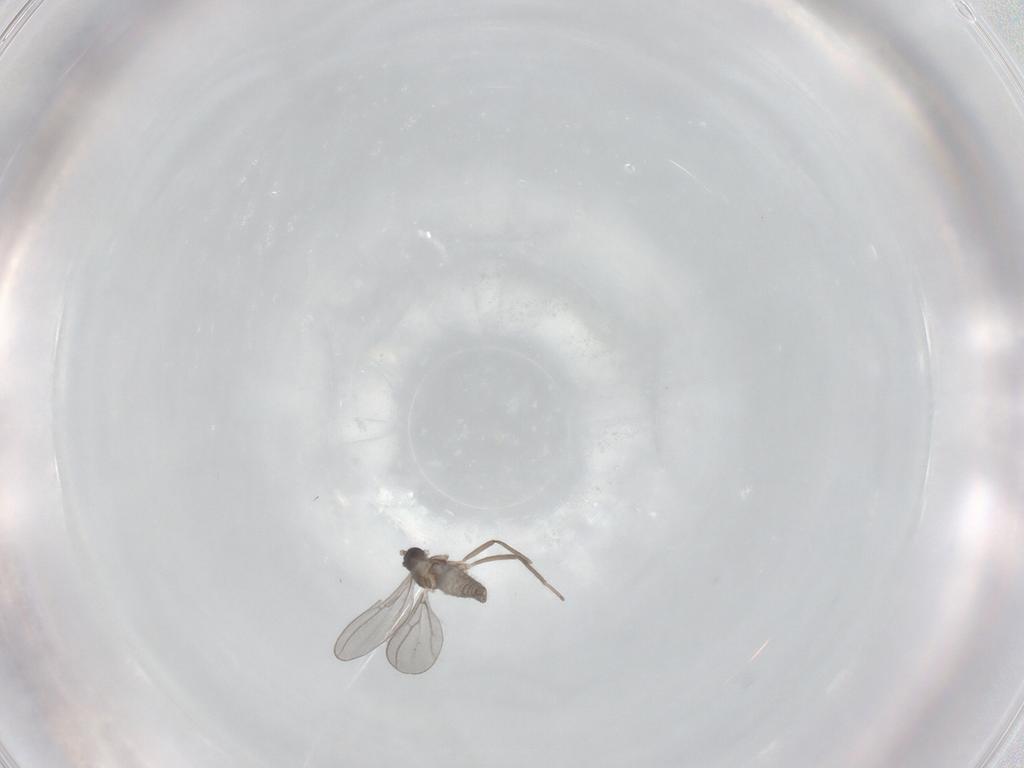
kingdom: Animalia
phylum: Arthropoda
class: Insecta
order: Diptera
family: Cecidomyiidae
